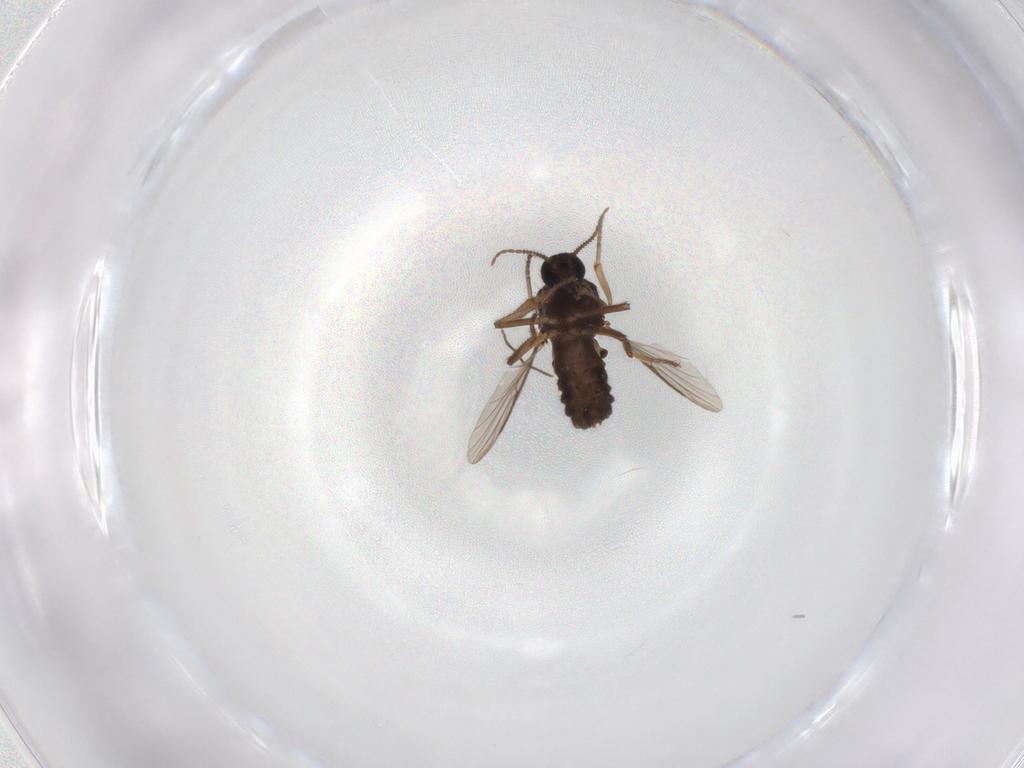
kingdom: Animalia
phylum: Arthropoda
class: Insecta
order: Diptera
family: Ceratopogonidae
